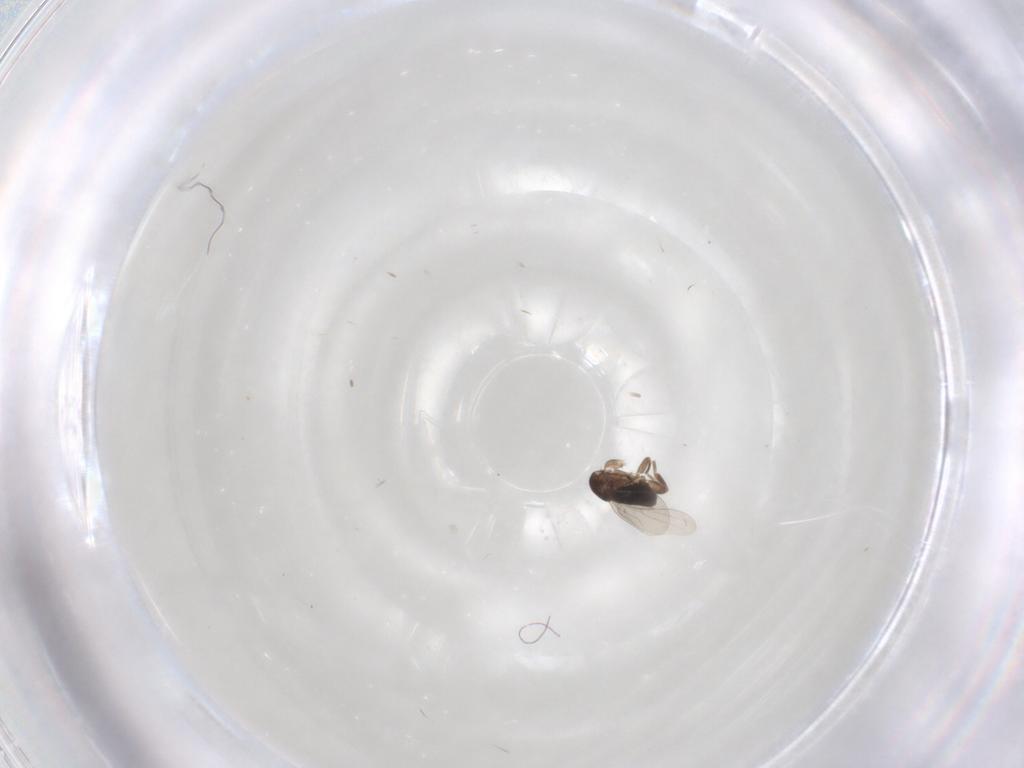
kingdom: Animalia
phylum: Arthropoda
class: Insecta
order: Diptera
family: Phoridae
